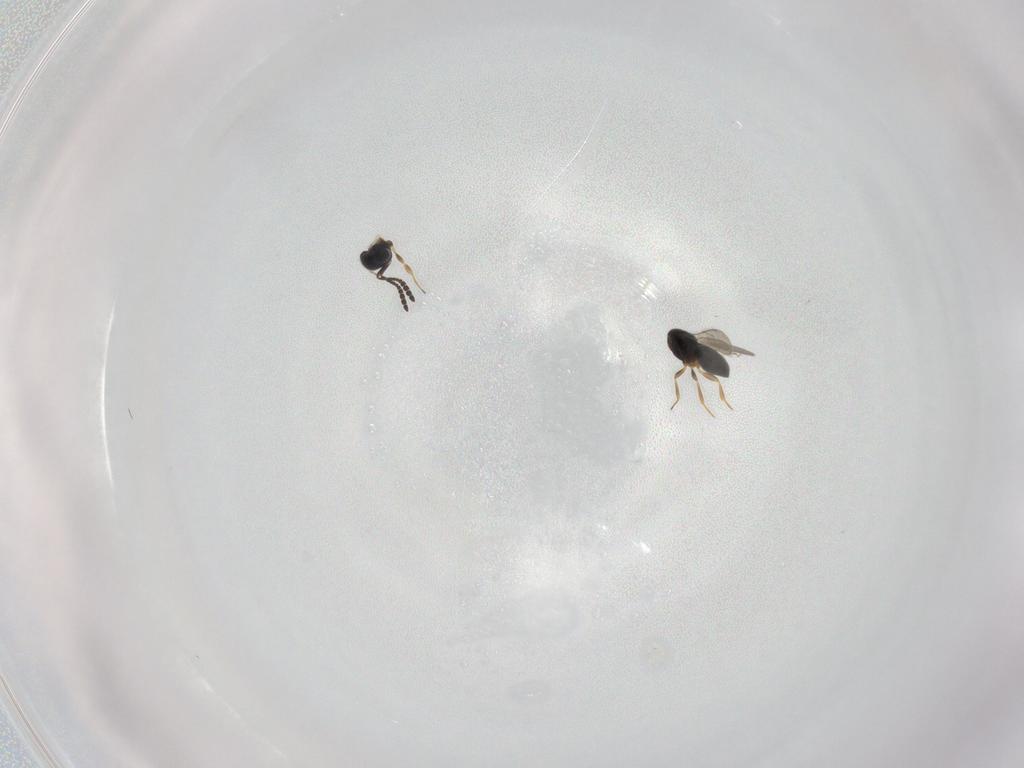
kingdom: Animalia
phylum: Arthropoda
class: Insecta
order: Hymenoptera
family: Scelionidae
